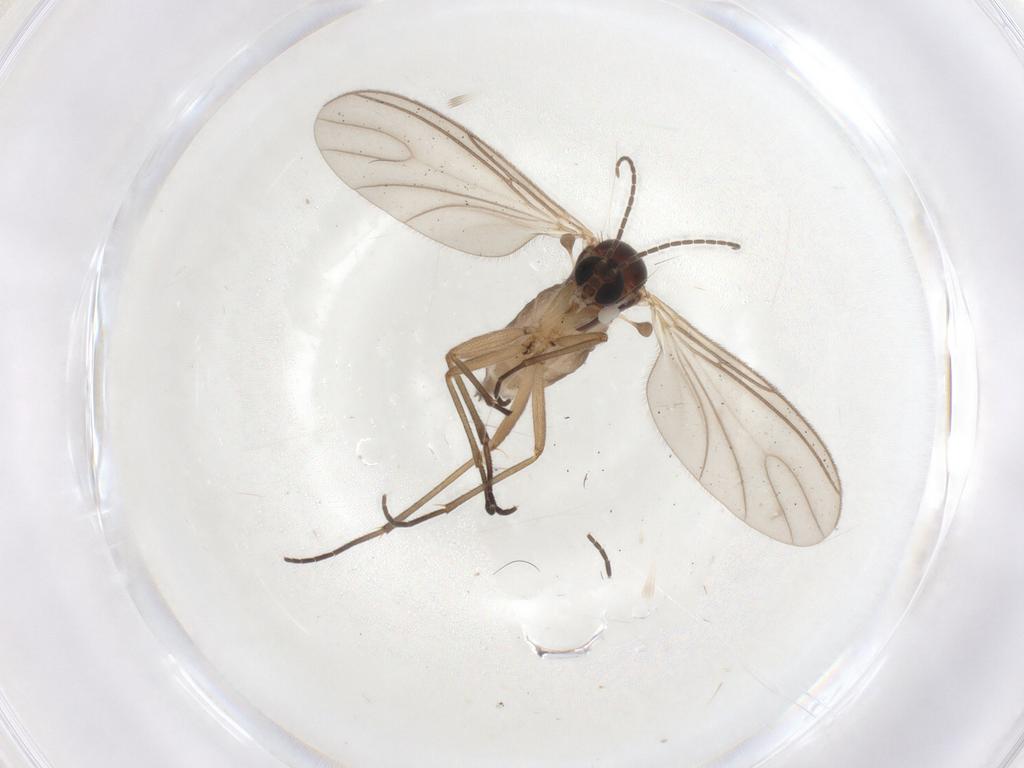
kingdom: Animalia
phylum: Arthropoda
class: Insecta
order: Diptera
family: Sciaridae
